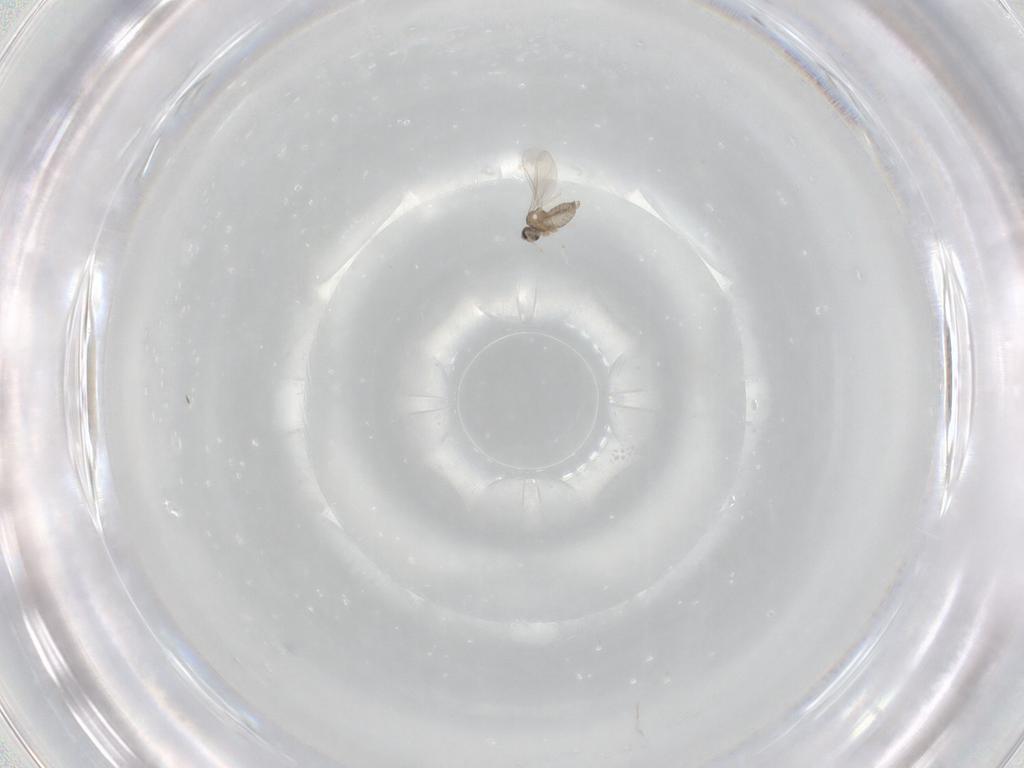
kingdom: Animalia
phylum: Arthropoda
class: Insecta
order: Diptera
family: Cecidomyiidae
